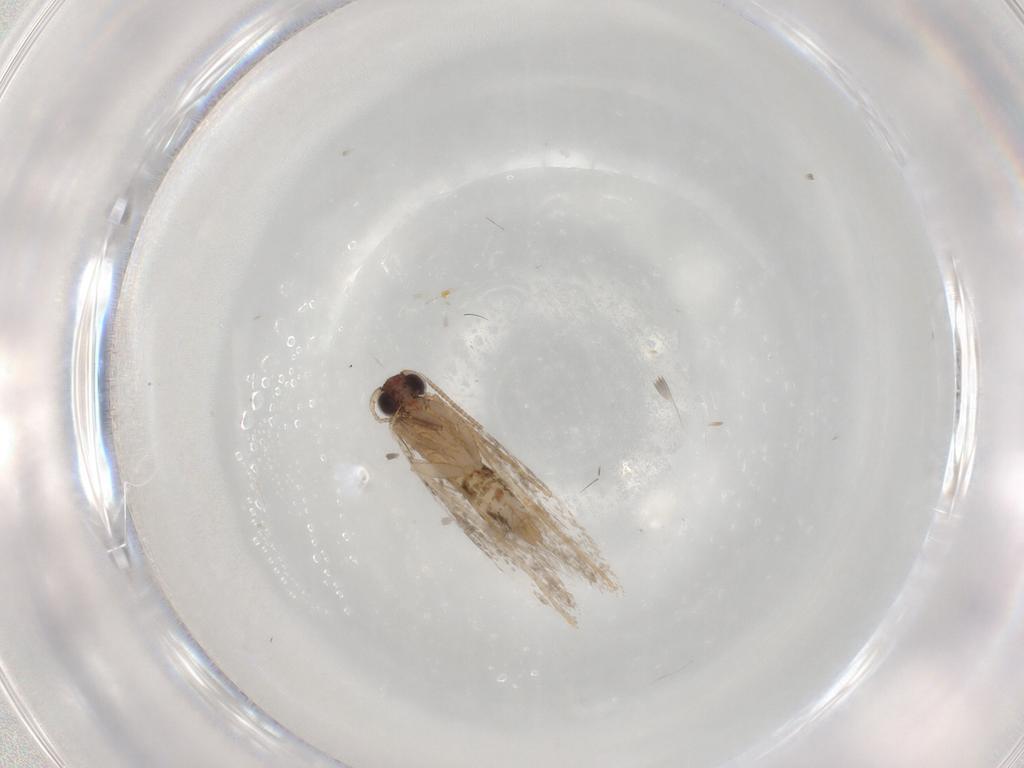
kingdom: Animalia
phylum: Arthropoda
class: Insecta
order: Lepidoptera
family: Erebidae
